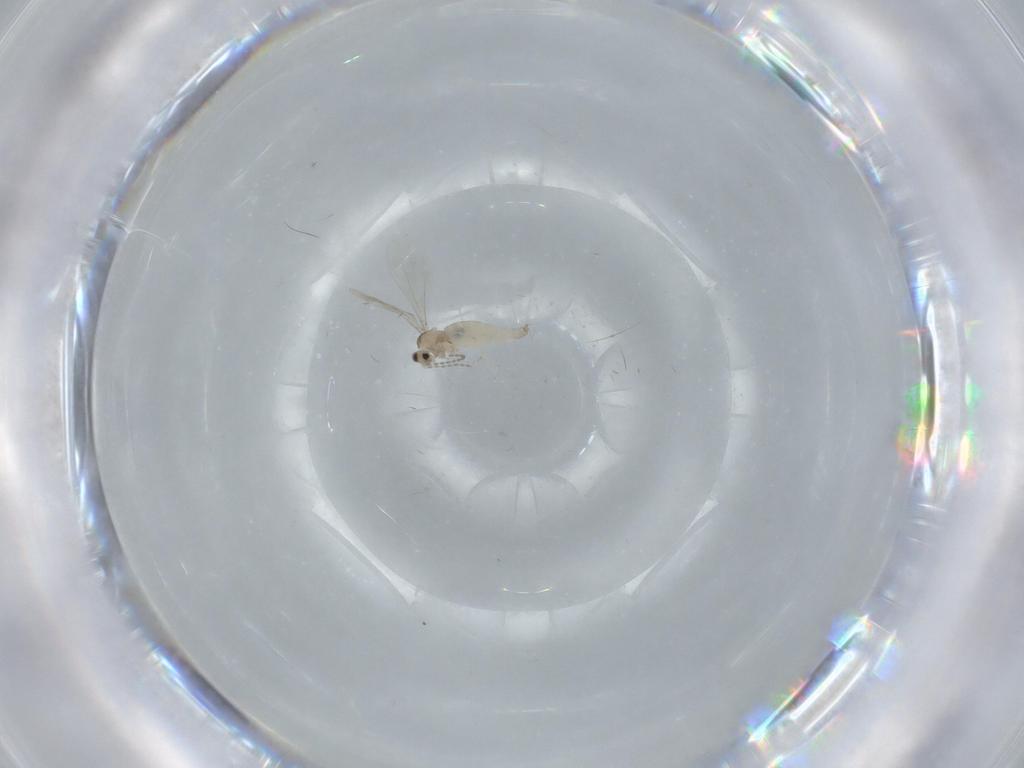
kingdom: Animalia
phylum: Arthropoda
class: Insecta
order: Diptera
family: Cecidomyiidae
